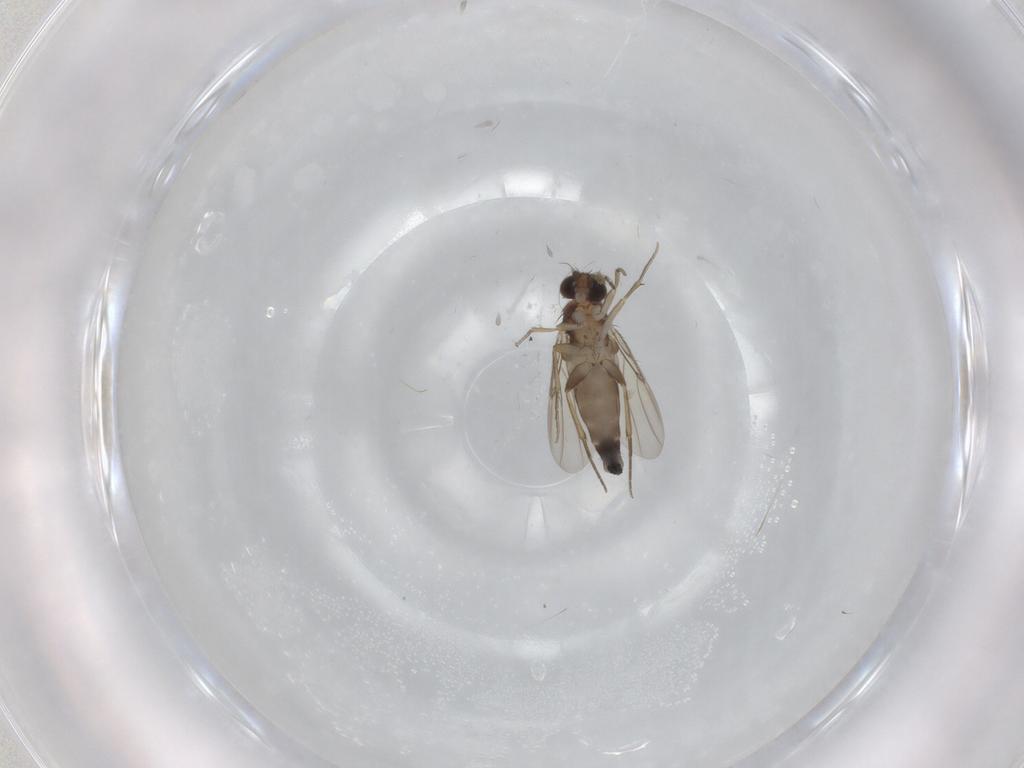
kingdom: Animalia
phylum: Arthropoda
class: Insecta
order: Diptera
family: Phoridae
